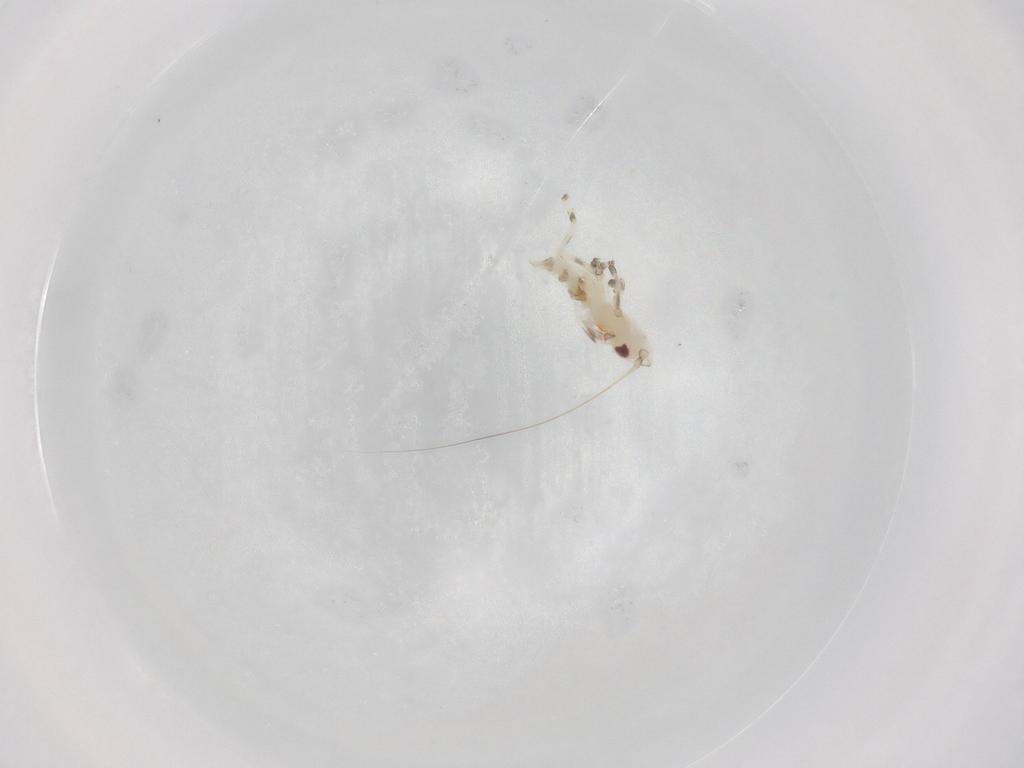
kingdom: Animalia
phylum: Arthropoda
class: Insecta
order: Hemiptera
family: Cicadellidae
